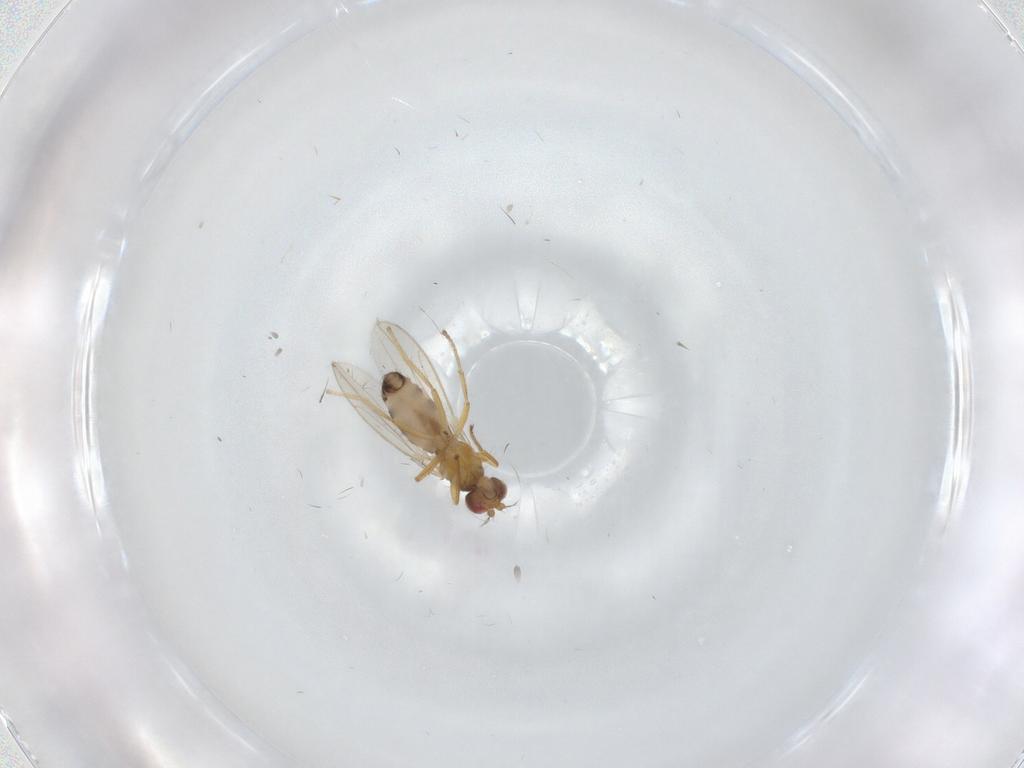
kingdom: Animalia
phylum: Arthropoda
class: Insecta
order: Diptera
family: Periscelididae
